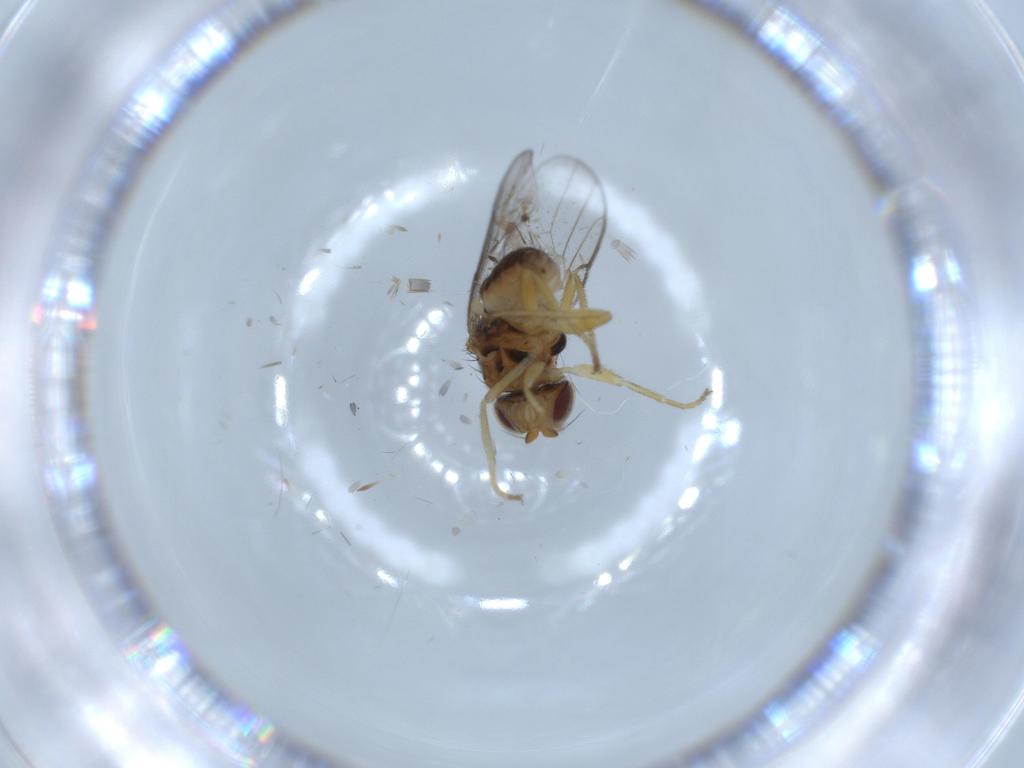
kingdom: Animalia
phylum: Arthropoda
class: Insecta
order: Diptera
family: Chloropidae
